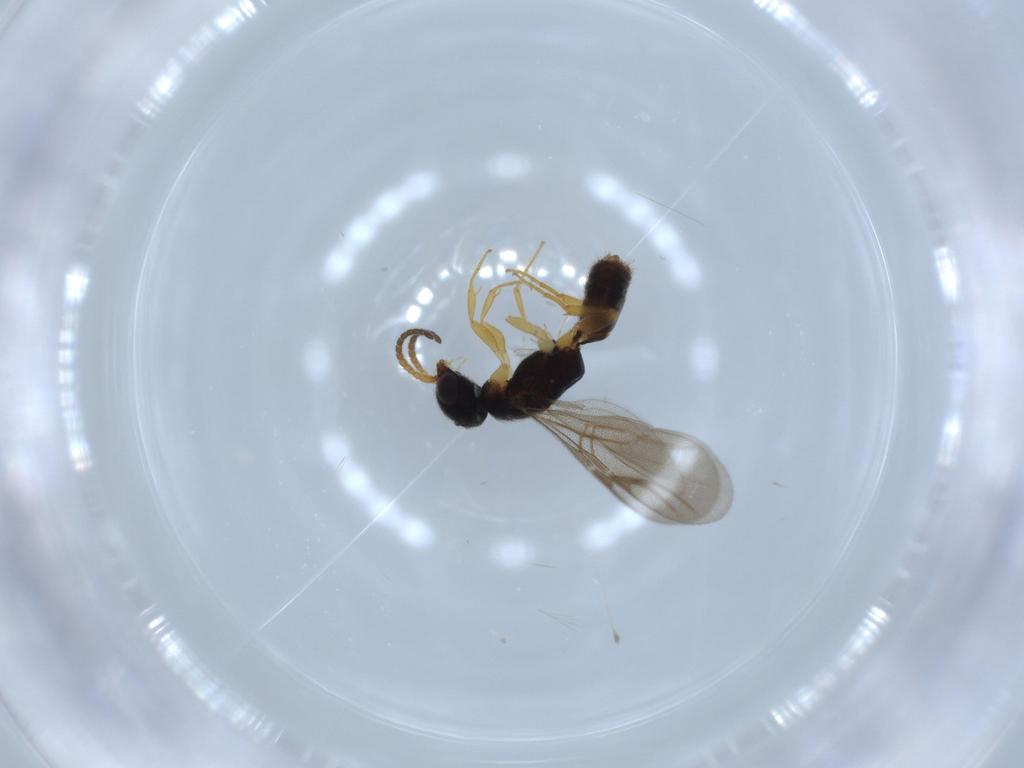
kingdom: Animalia
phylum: Arthropoda
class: Insecta
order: Hymenoptera
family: Bethylidae
